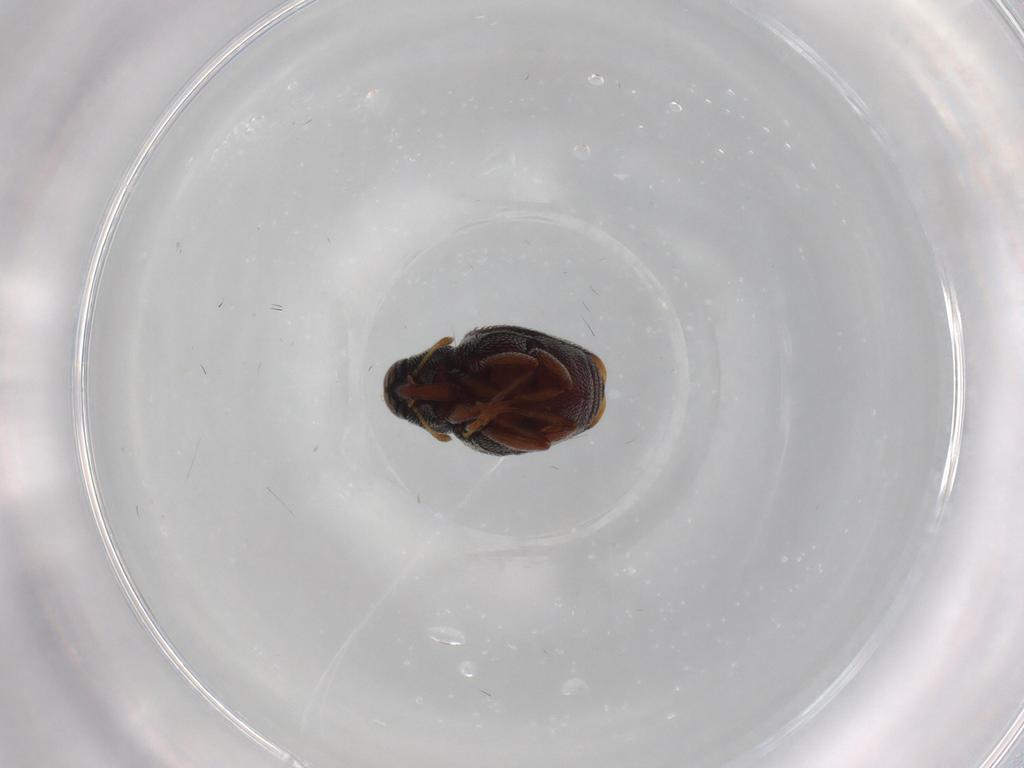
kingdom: Animalia
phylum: Arthropoda
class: Insecta
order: Coleoptera
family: Curculionidae
